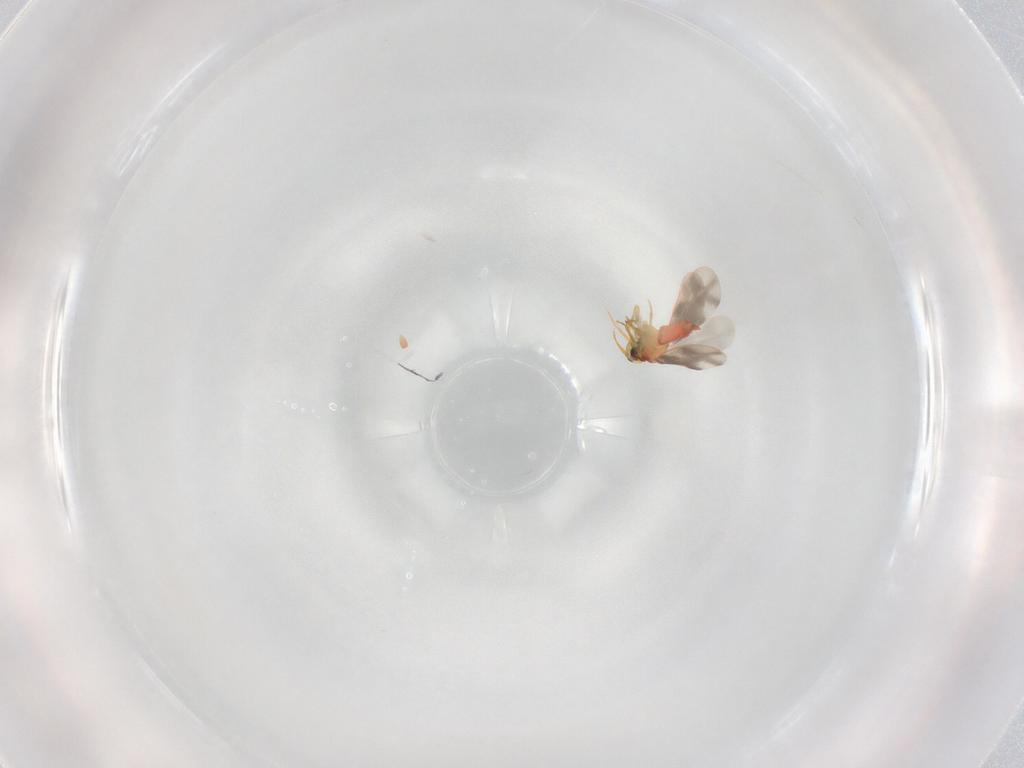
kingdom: Animalia
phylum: Arthropoda
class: Insecta
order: Hemiptera
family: Aleyrodidae
